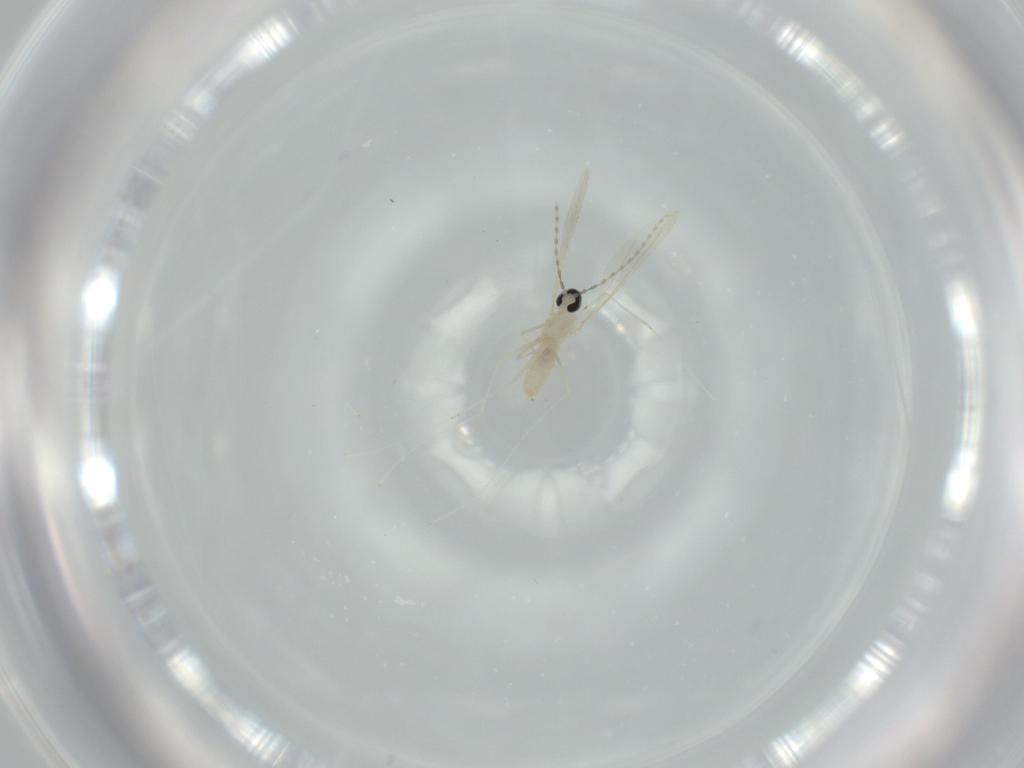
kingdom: Animalia
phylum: Arthropoda
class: Insecta
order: Diptera
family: Cecidomyiidae
